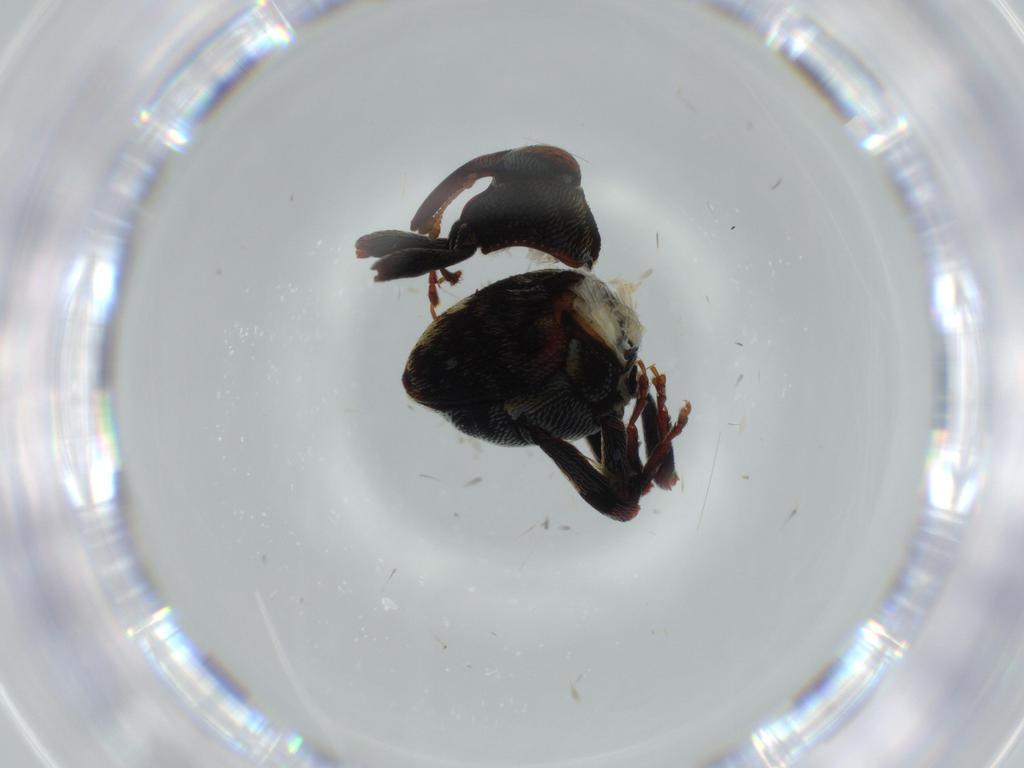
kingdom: Animalia
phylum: Arthropoda
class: Insecta
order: Coleoptera
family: Curculionidae
